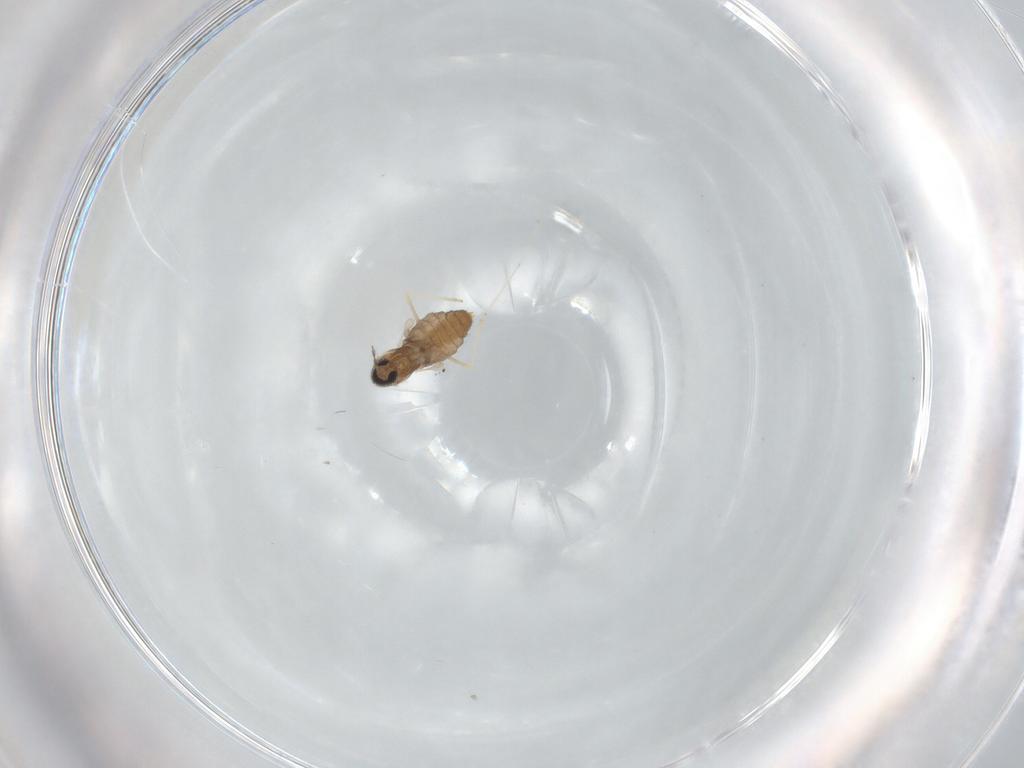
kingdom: Animalia
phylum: Arthropoda
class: Insecta
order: Diptera
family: Cecidomyiidae
